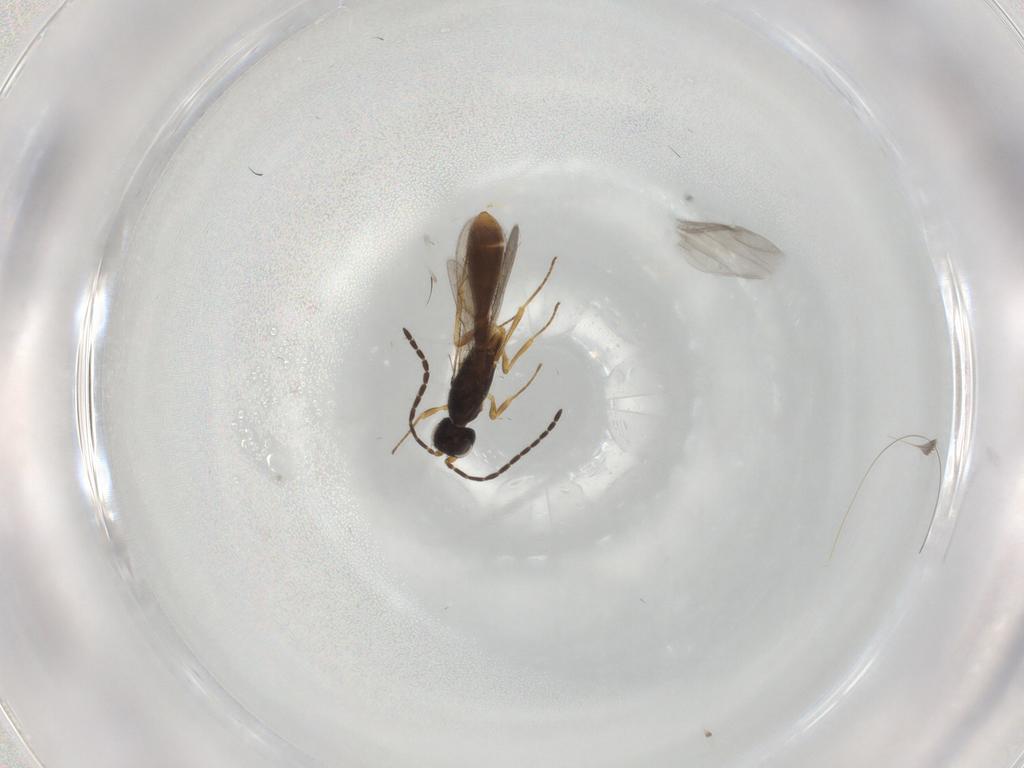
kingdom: Animalia
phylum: Arthropoda
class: Insecta
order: Hymenoptera
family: Scelionidae
